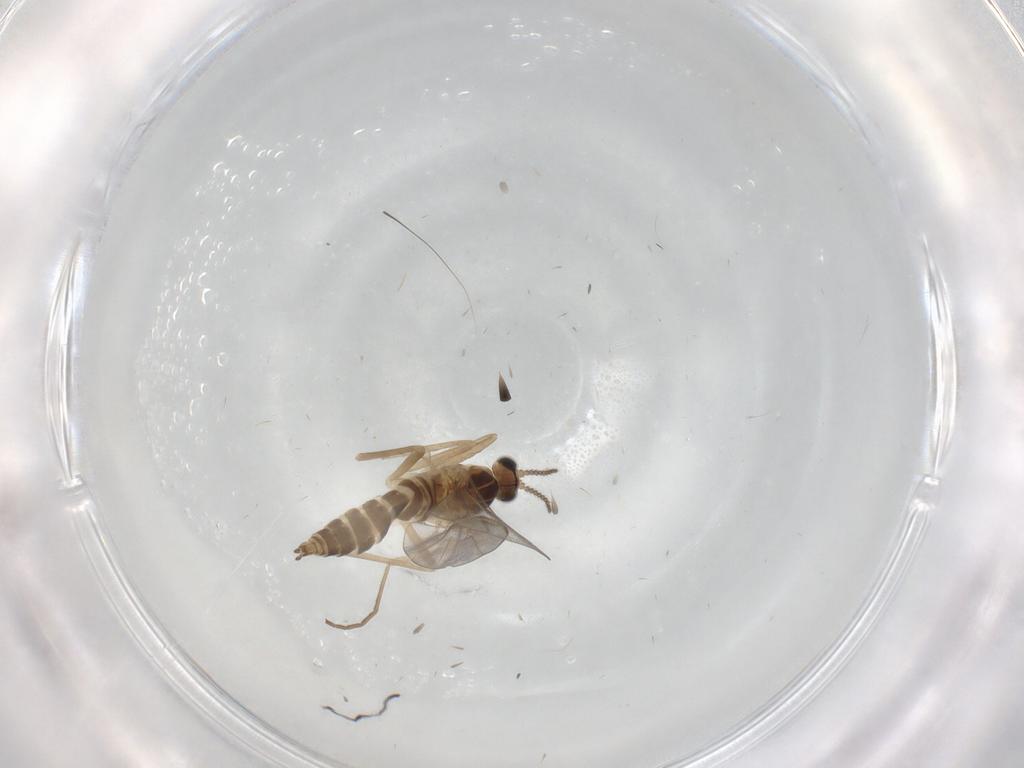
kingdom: Animalia
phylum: Arthropoda
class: Insecta
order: Diptera
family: Cecidomyiidae
